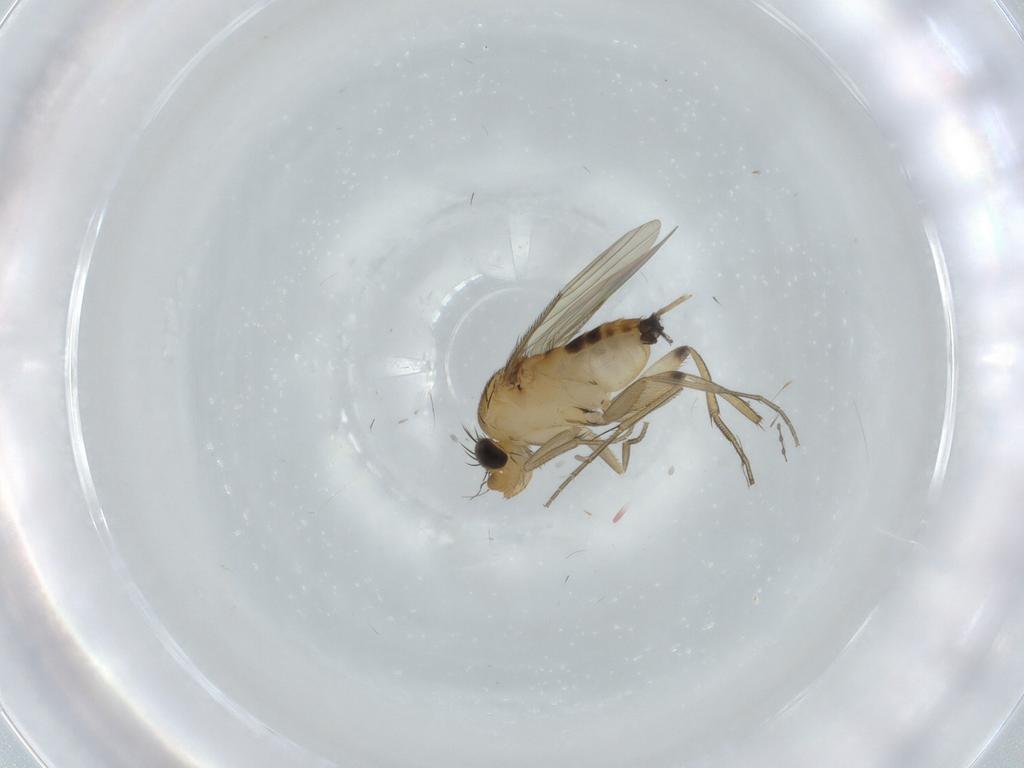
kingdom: Animalia
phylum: Arthropoda
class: Insecta
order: Diptera
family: Phoridae
